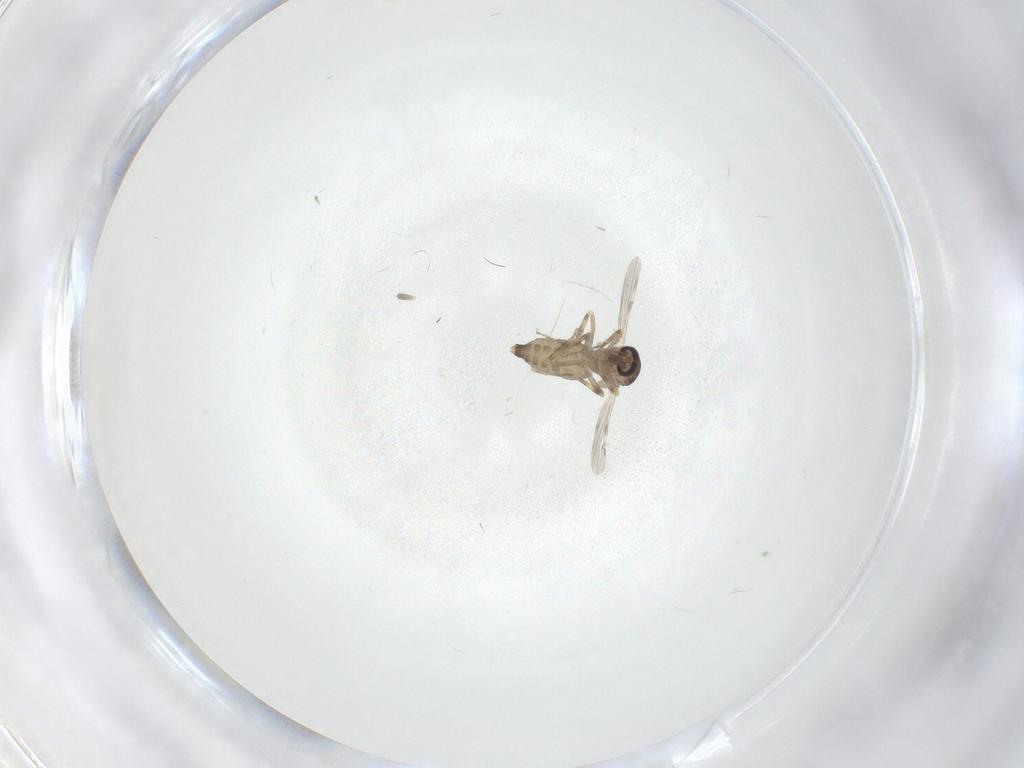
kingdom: Animalia
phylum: Arthropoda
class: Insecta
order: Diptera
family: Ceratopogonidae
